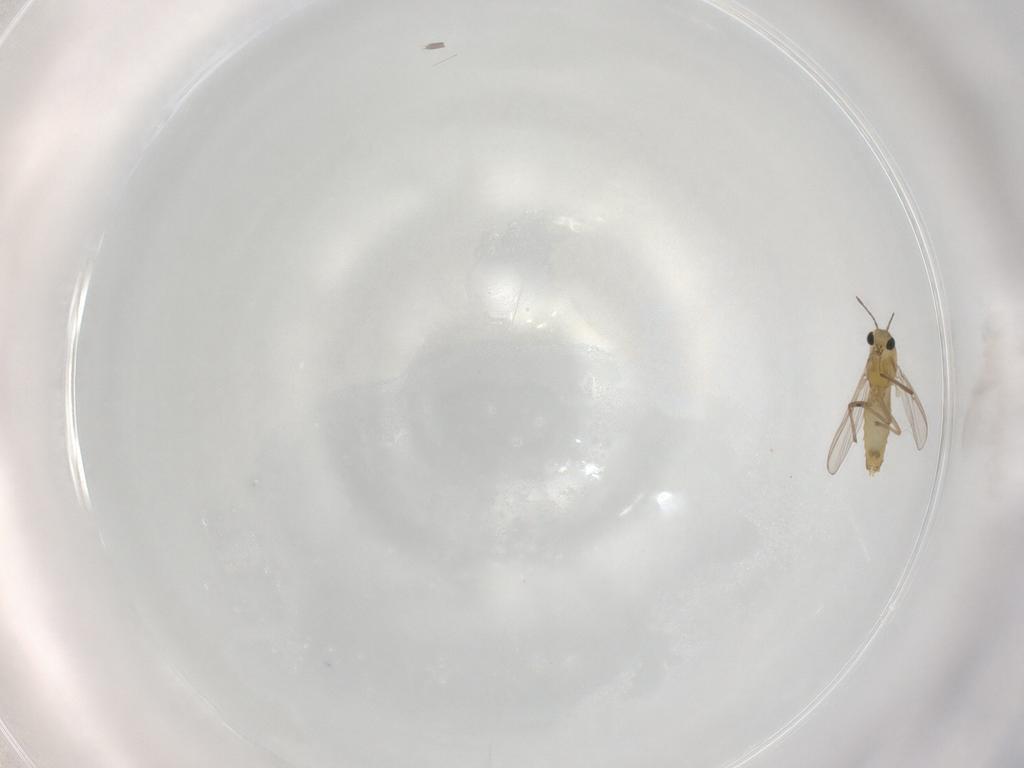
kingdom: Animalia
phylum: Arthropoda
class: Insecta
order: Diptera
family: Chironomidae
